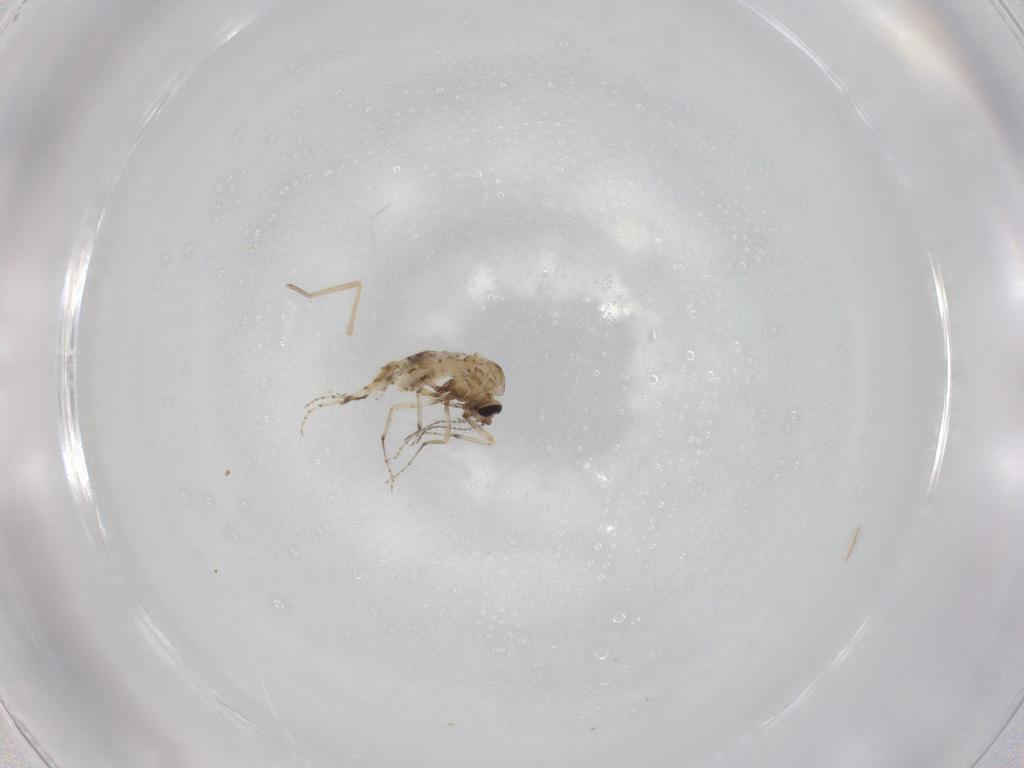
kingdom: Animalia
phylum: Arthropoda
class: Insecta
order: Diptera
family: Ceratopogonidae
